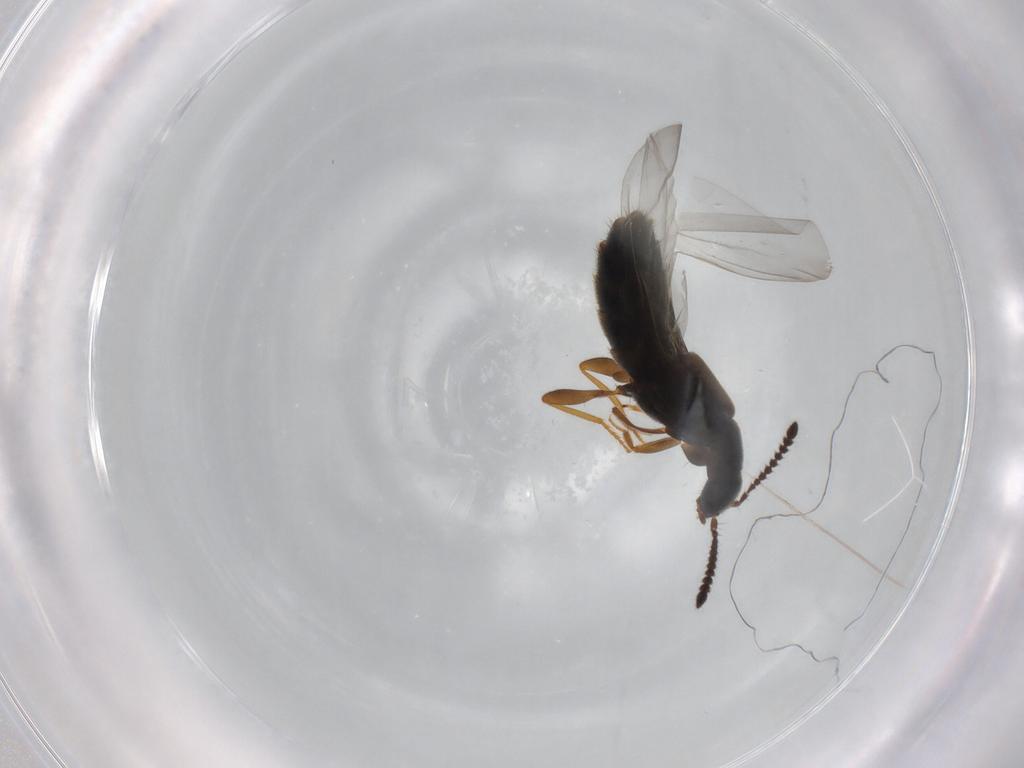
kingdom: Animalia
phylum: Arthropoda
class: Insecta
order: Coleoptera
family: Staphylinidae
